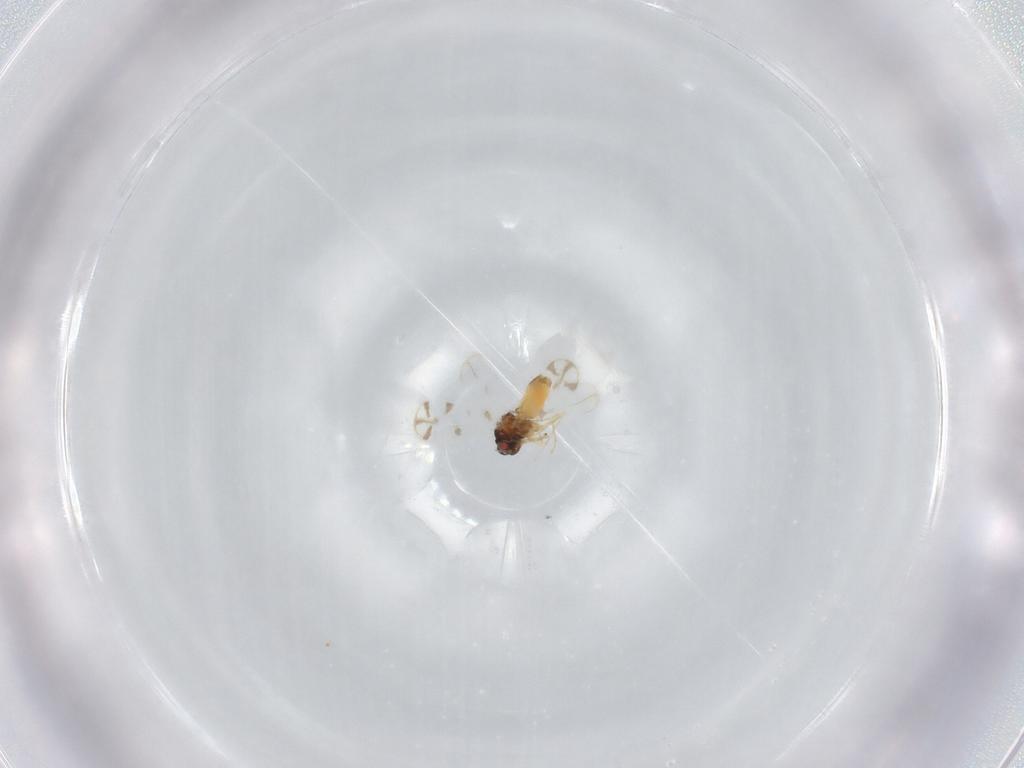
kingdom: Animalia
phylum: Arthropoda
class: Insecta
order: Hemiptera
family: Aleyrodidae
